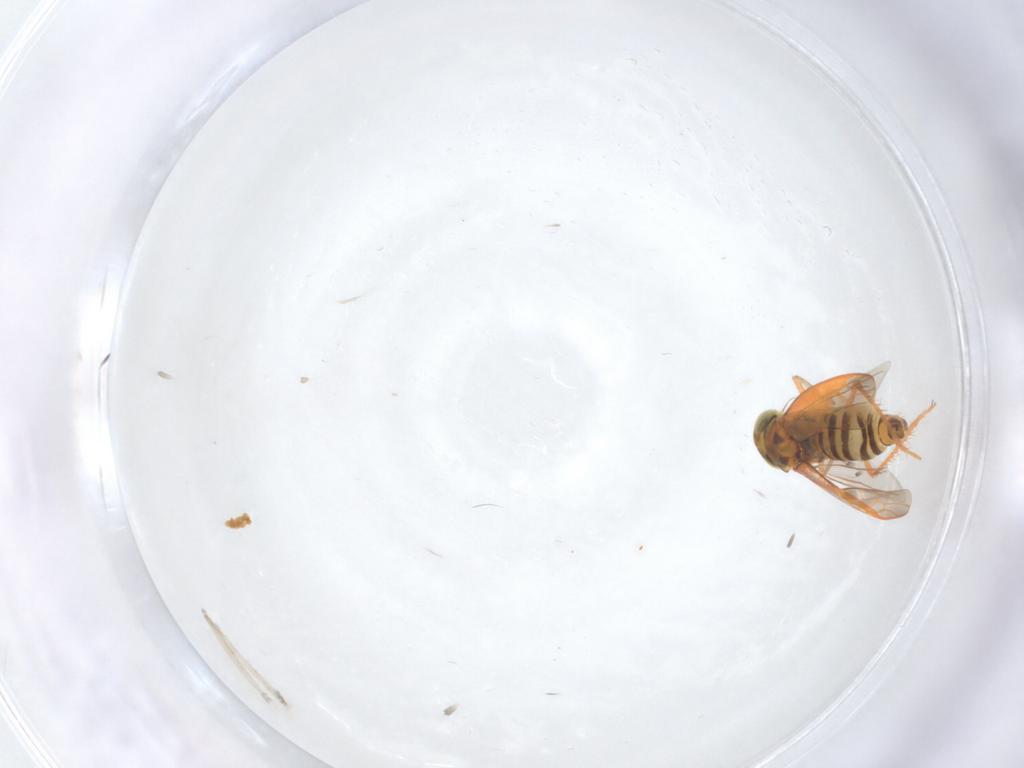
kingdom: Animalia
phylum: Arthropoda
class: Insecta
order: Hemiptera
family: Cicadellidae
